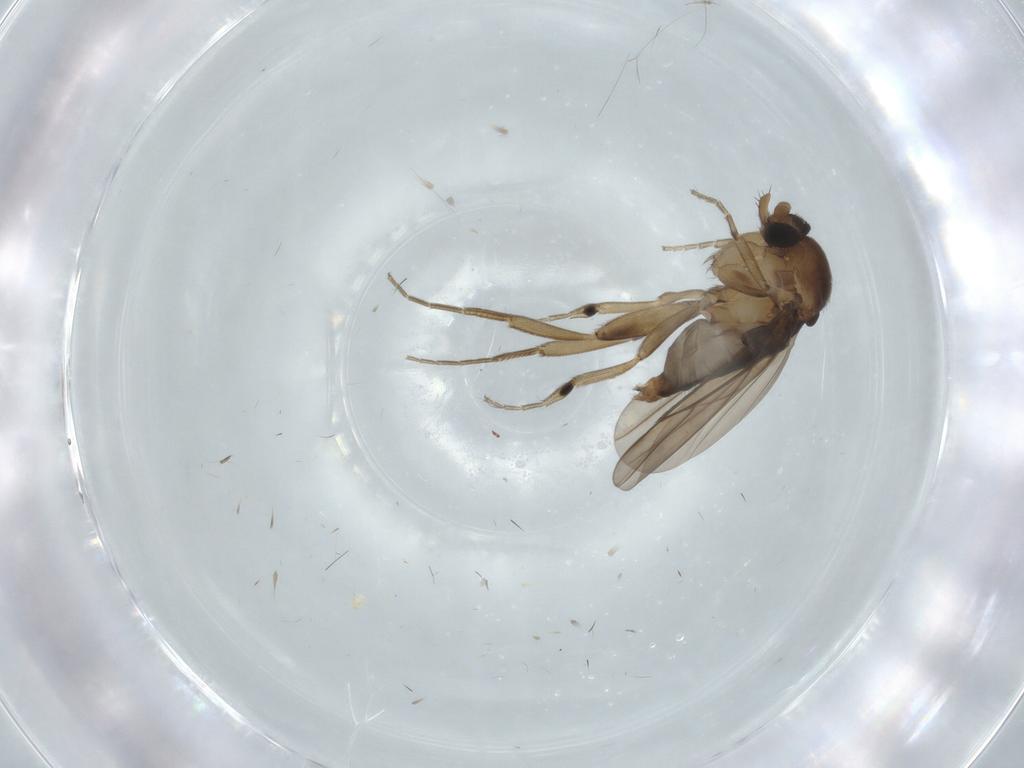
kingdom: Animalia
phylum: Arthropoda
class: Insecta
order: Diptera
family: Phoridae
